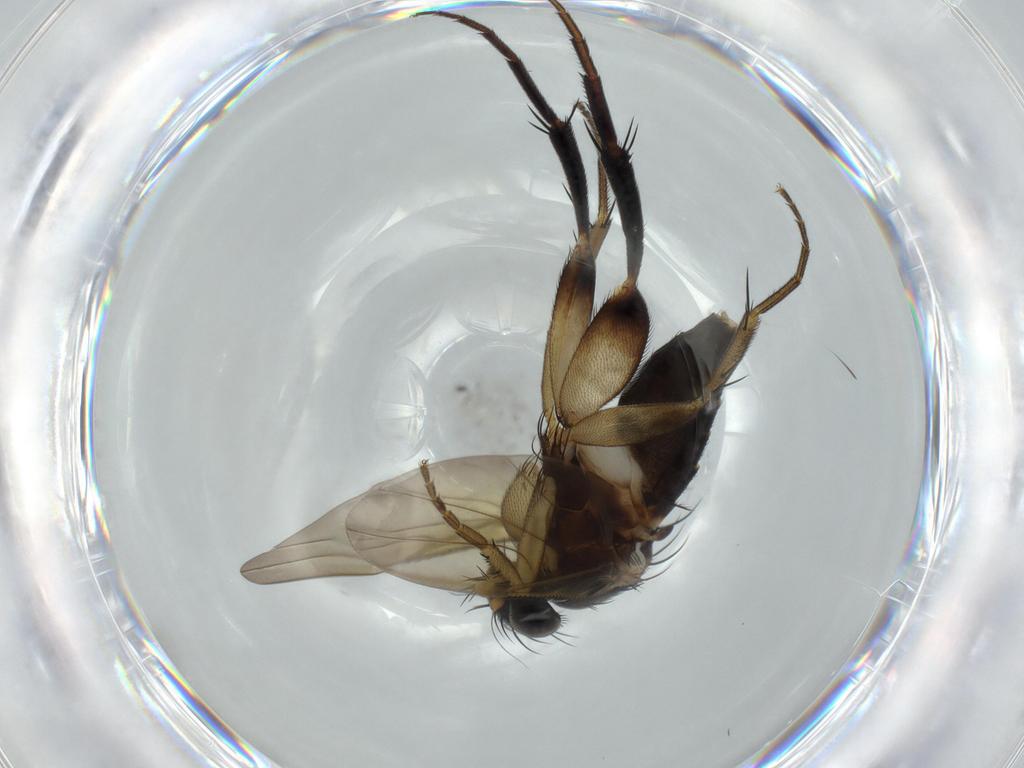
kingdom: Animalia
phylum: Arthropoda
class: Insecta
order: Diptera
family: Phoridae
